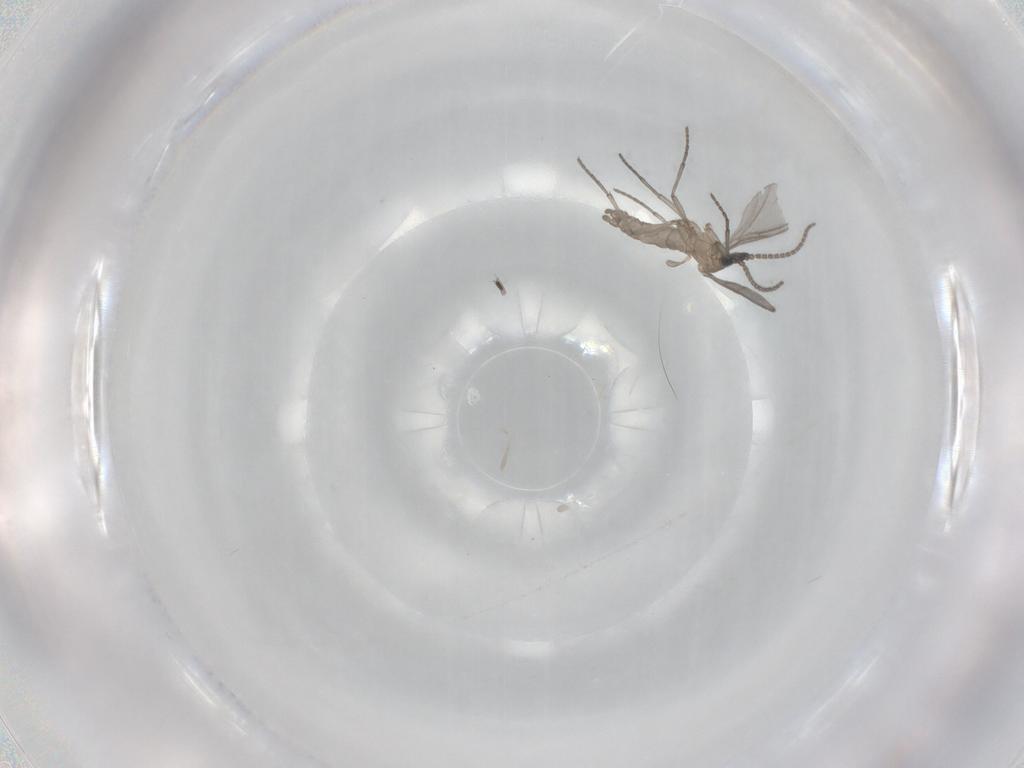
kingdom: Animalia
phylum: Arthropoda
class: Insecta
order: Diptera
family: Sciaridae
